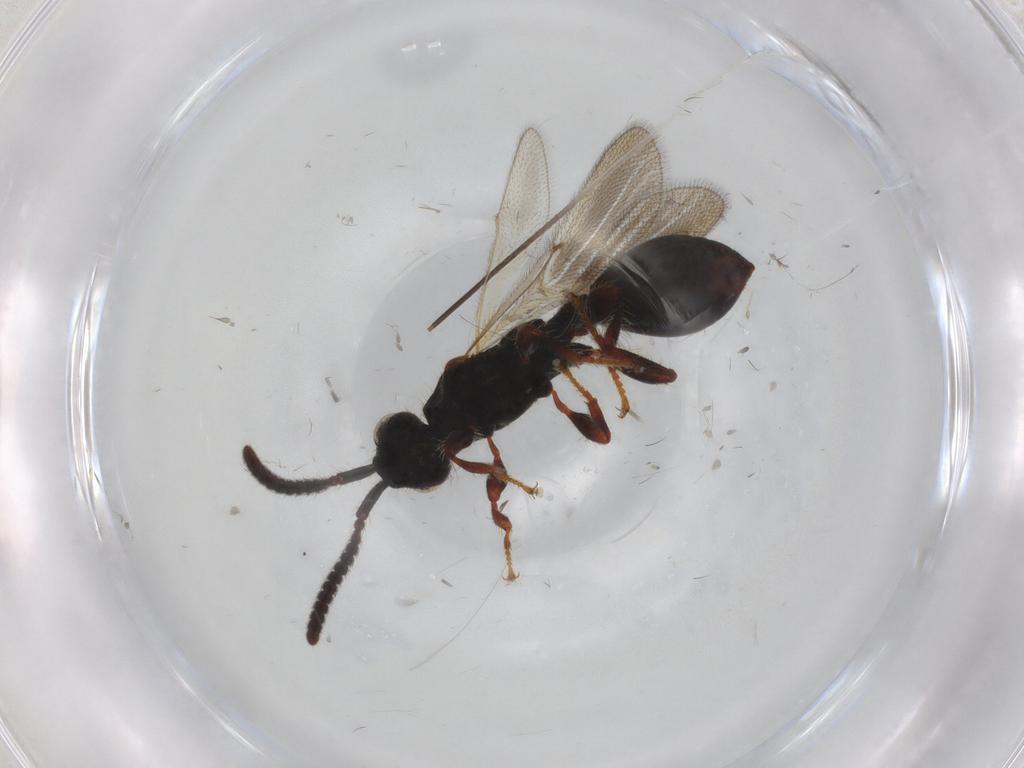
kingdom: Animalia
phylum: Arthropoda
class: Insecta
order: Hymenoptera
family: Diapriidae
